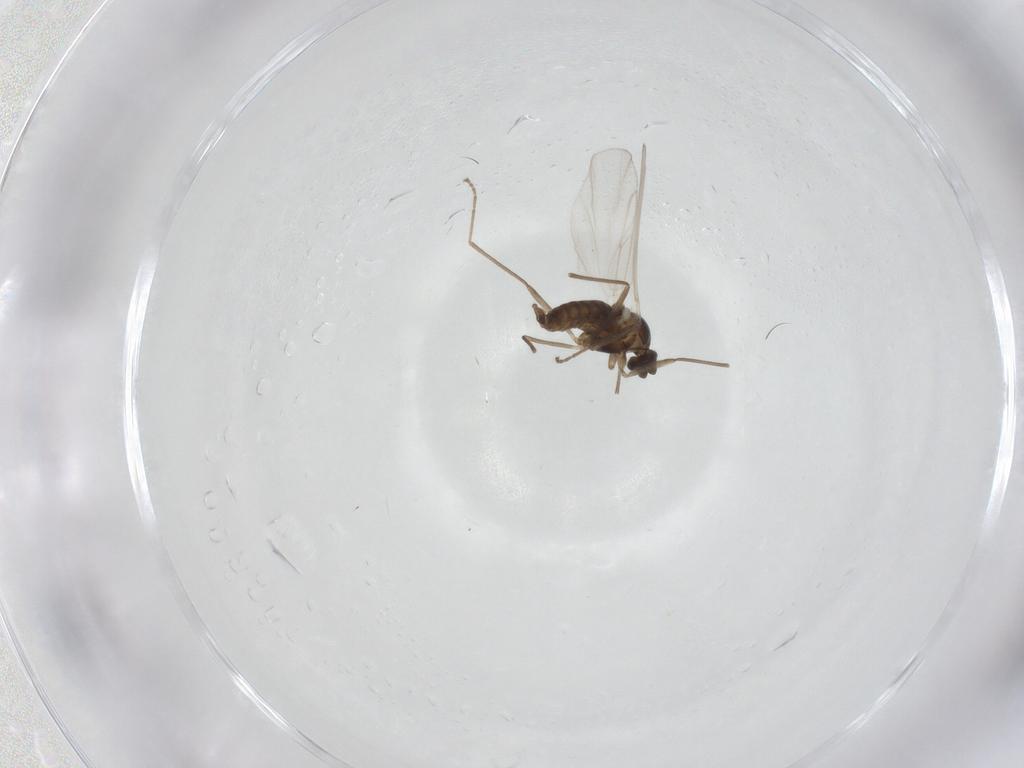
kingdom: Animalia
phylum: Arthropoda
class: Insecta
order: Diptera
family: Cecidomyiidae
